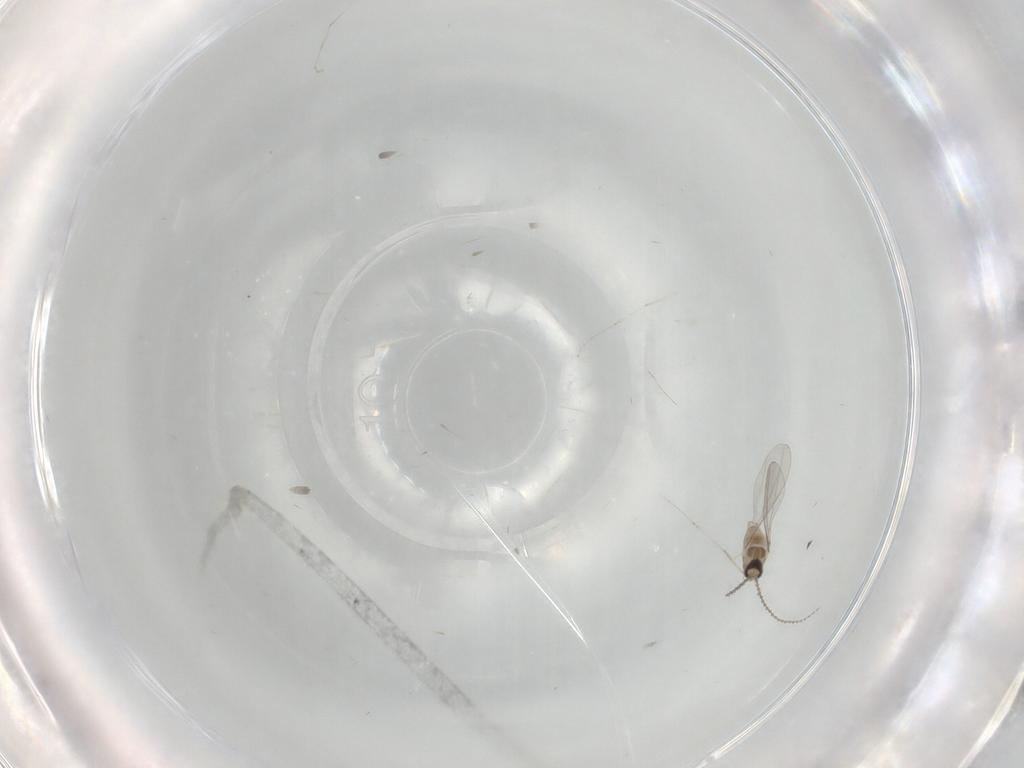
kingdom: Animalia
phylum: Arthropoda
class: Insecta
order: Diptera
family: Cecidomyiidae
